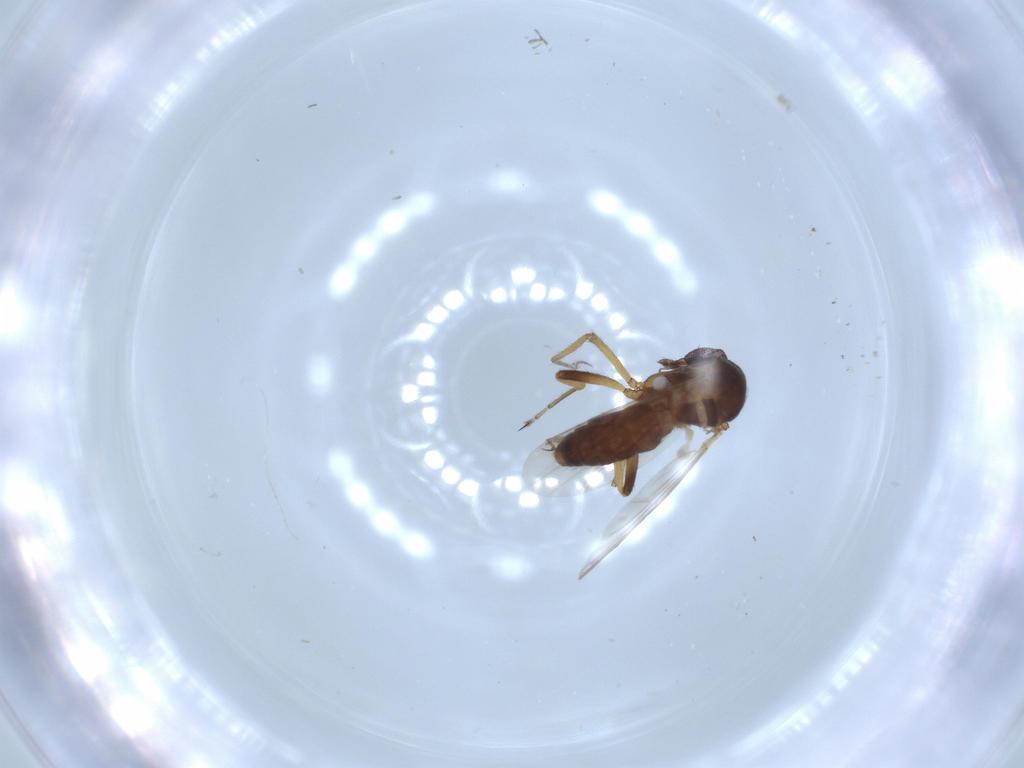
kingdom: Animalia
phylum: Arthropoda
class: Insecta
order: Diptera
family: Ceratopogonidae
